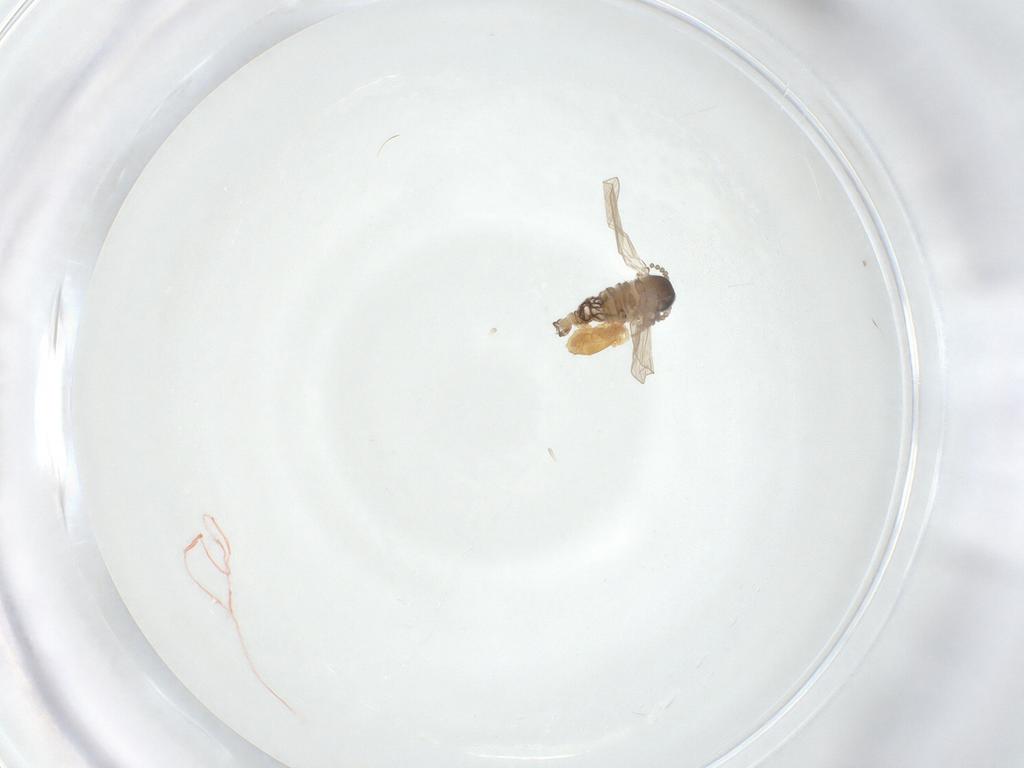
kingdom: Animalia
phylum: Arthropoda
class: Insecta
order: Diptera
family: Psychodidae
